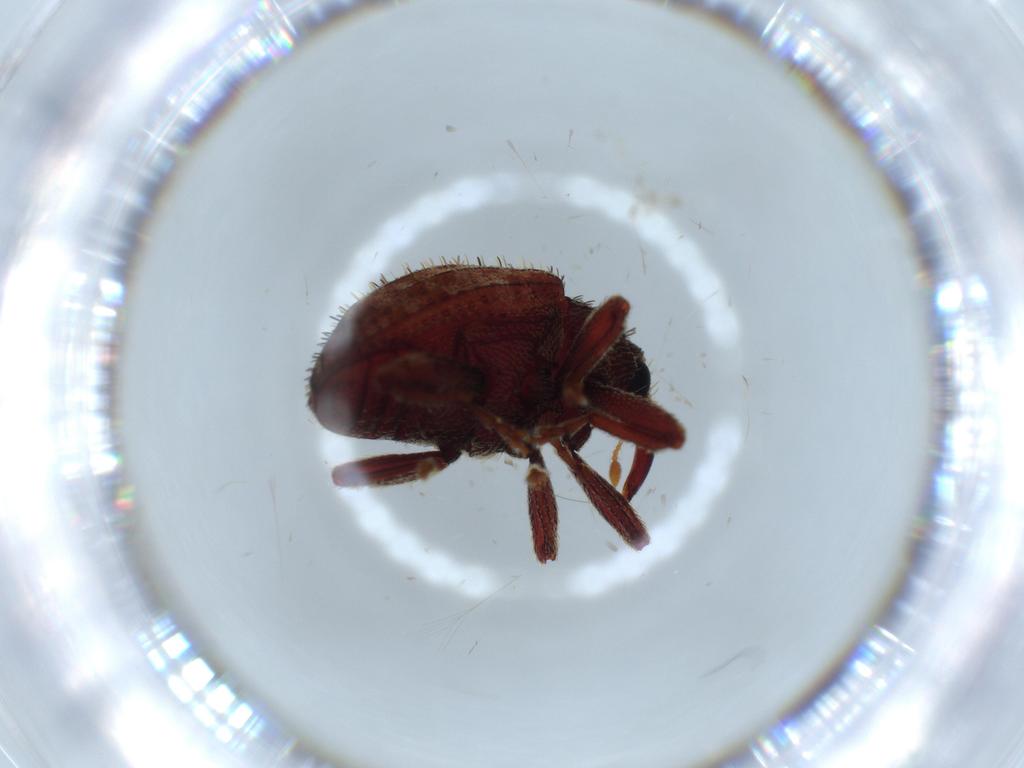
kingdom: Animalia
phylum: Arthropoda
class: Insecta
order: Coleoptera
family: Curculionidae
